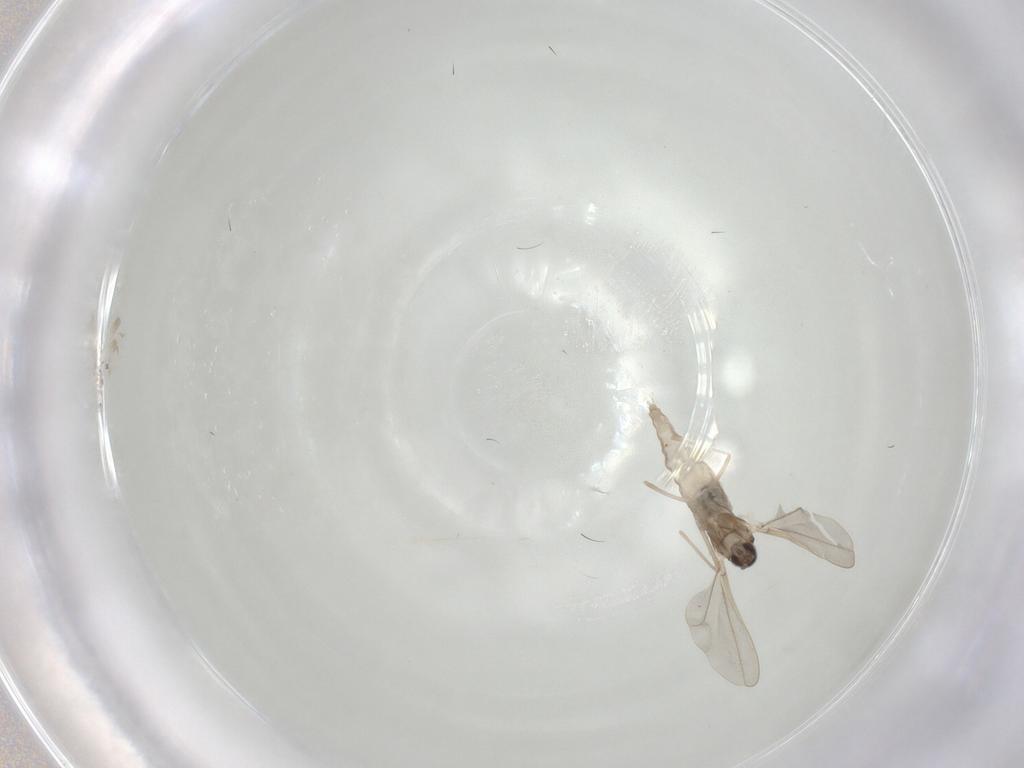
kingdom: Animalia
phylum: Arthropoda
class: Insecta
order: Diptera
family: Cecidomyiidae
